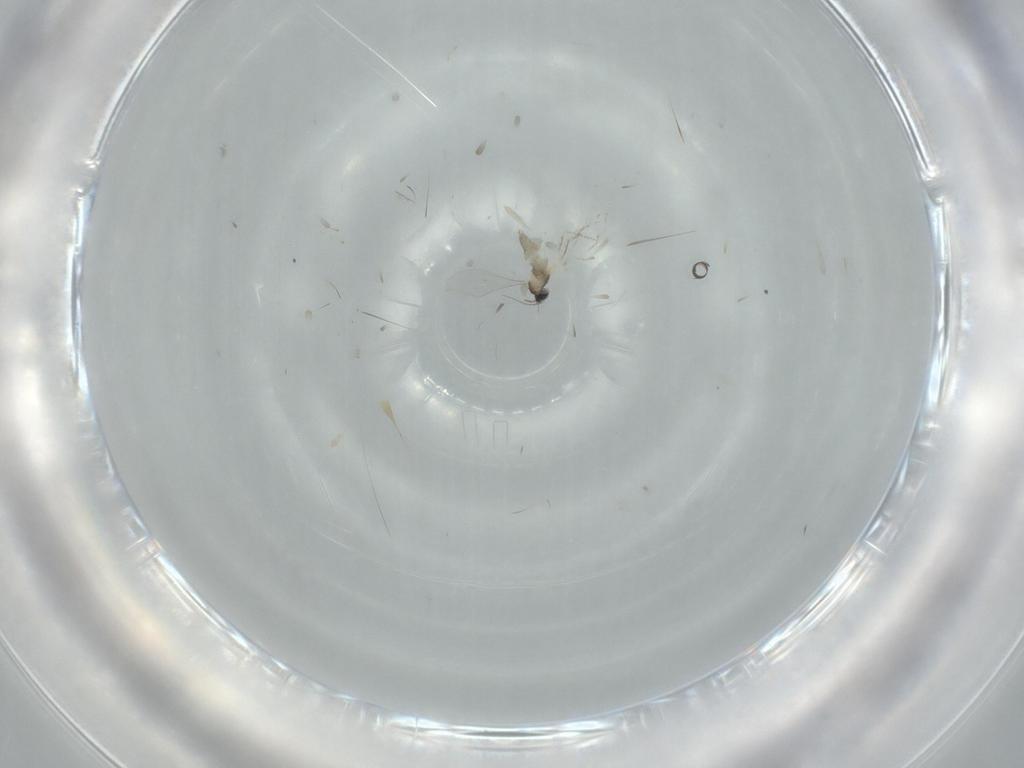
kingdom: Animalia
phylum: Arthropoda
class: Insecta
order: Diptera
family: Cecidomyiidae
